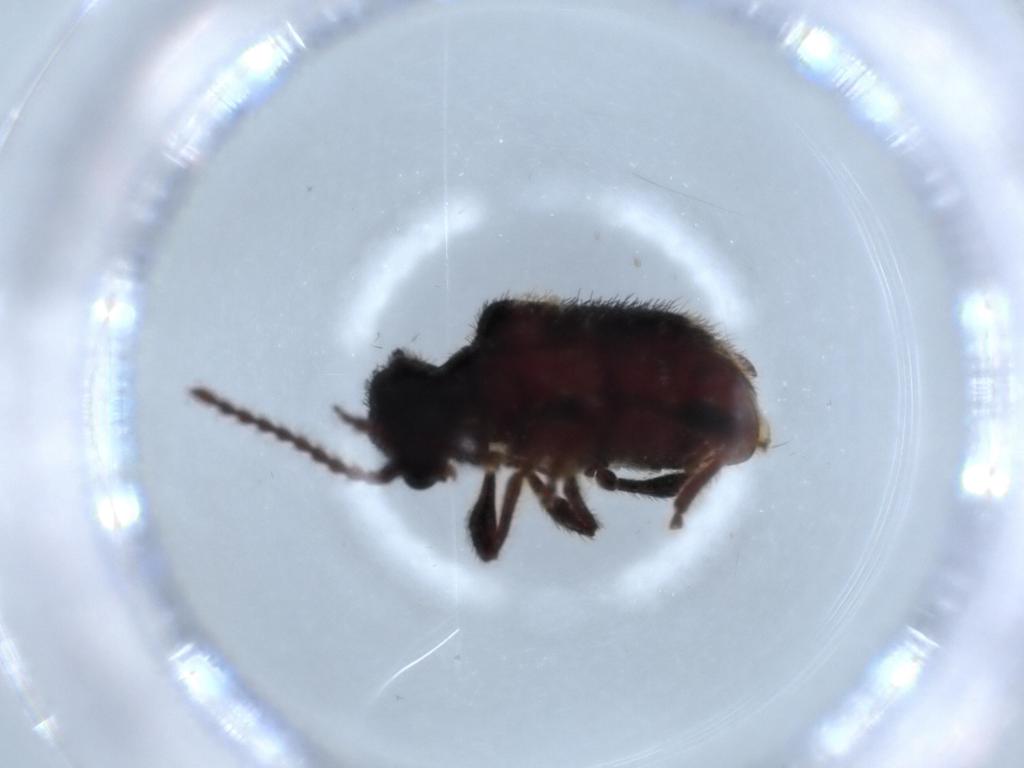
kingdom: Animalia
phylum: Arthropoda
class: Insecta
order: Coleoptera
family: Ptinidae
